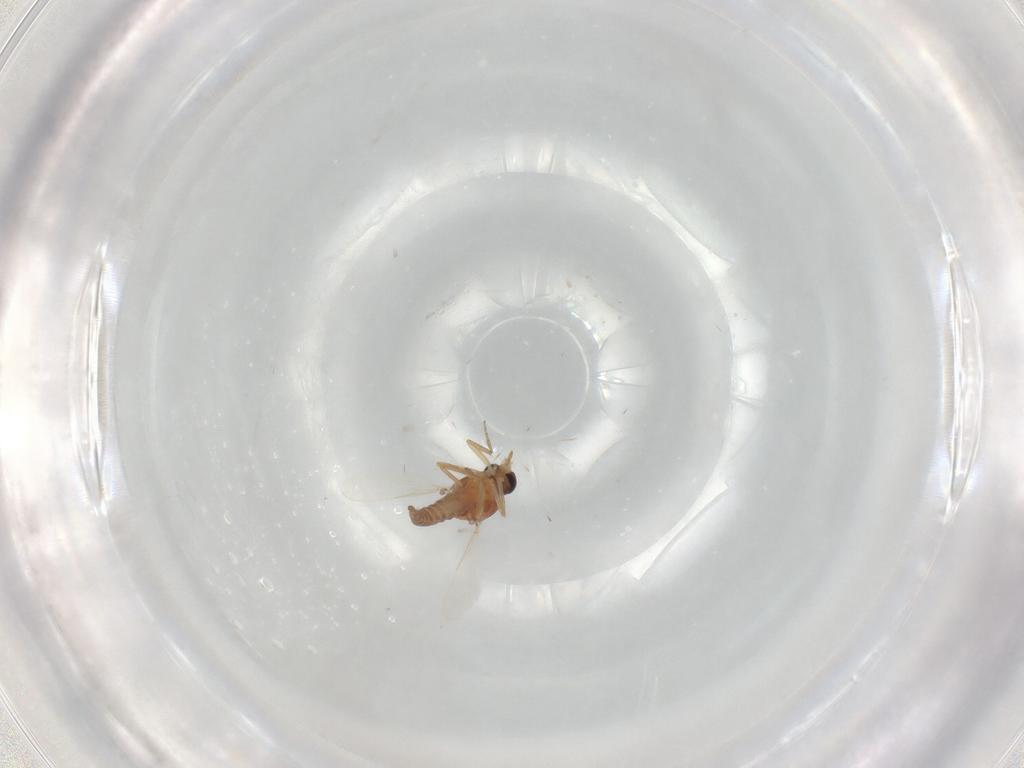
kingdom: Animalia
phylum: Arthropoda
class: Insecta
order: Diptera
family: Ceratopogonidae
